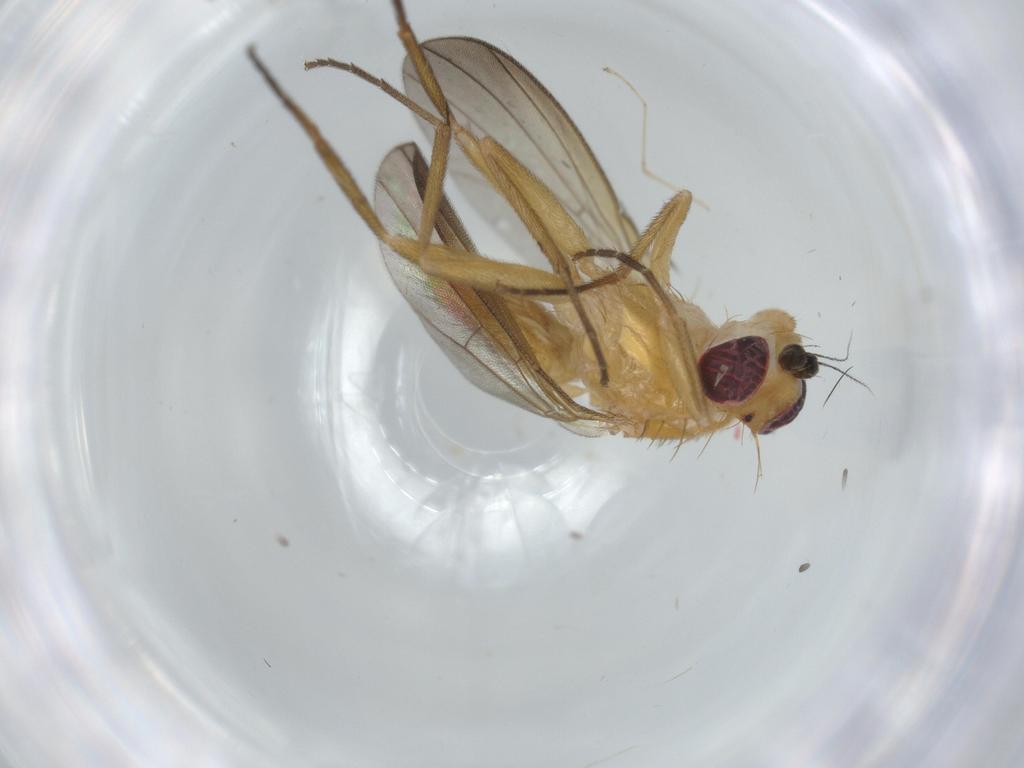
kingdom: Animalia
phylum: Arthropoda
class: Insecta
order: Diptera
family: Clusiidae
